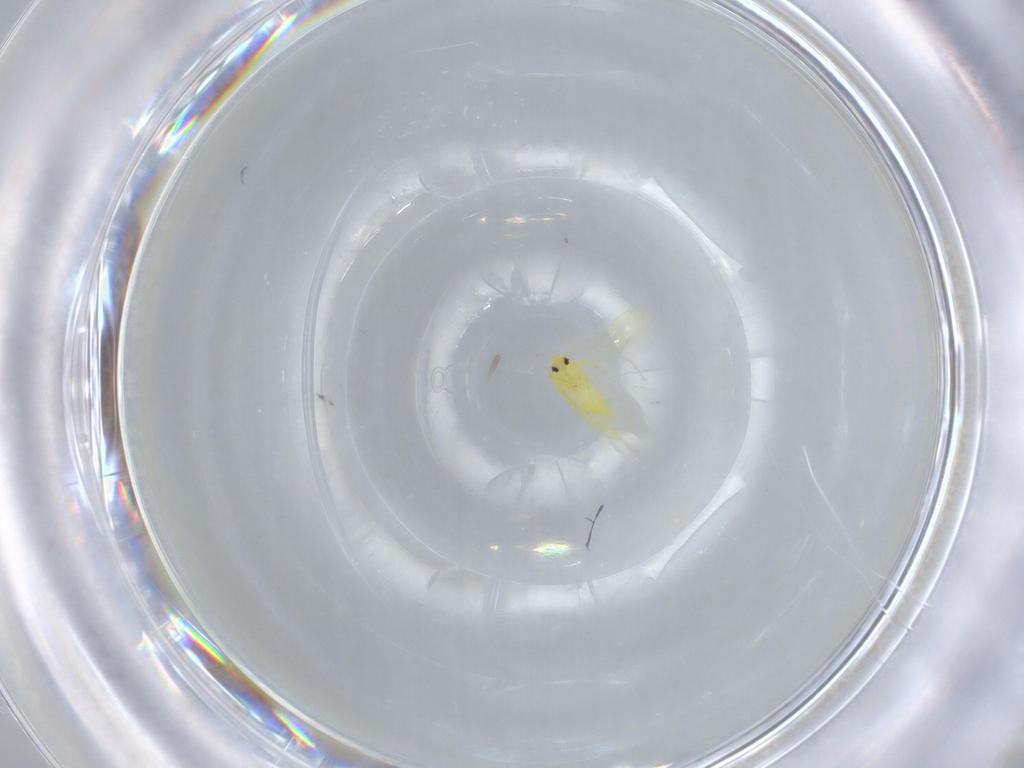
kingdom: Animalia
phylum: Arthropoda
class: Insecta
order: Hemiptera
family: Aleyrodidae
